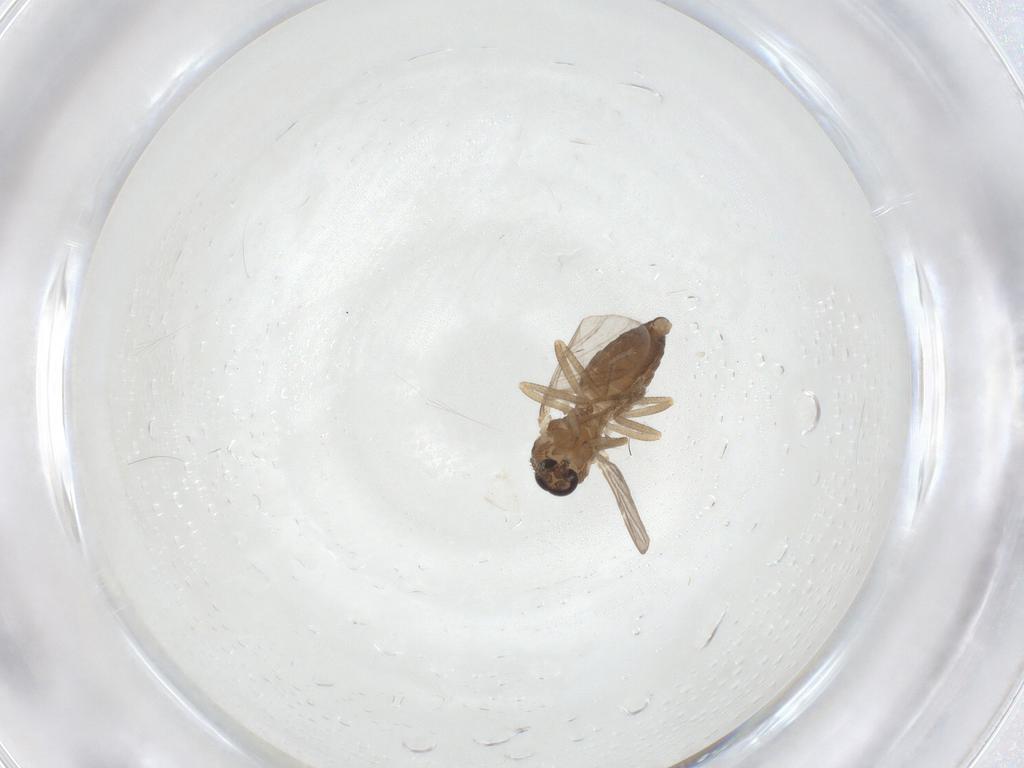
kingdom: Animalia
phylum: Arthropoda
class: Insecta
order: Diptera
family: Ceratopogonidae
